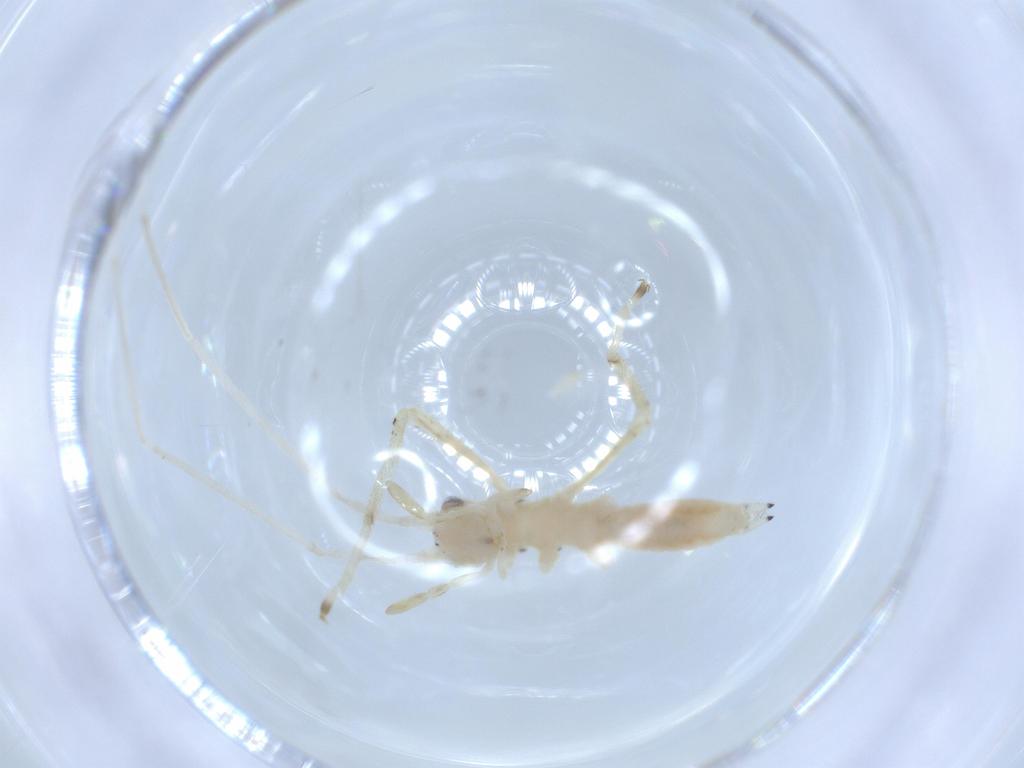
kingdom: Animalia
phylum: Arthropoda
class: Insecta
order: Orthoptera
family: Oecanthidae
